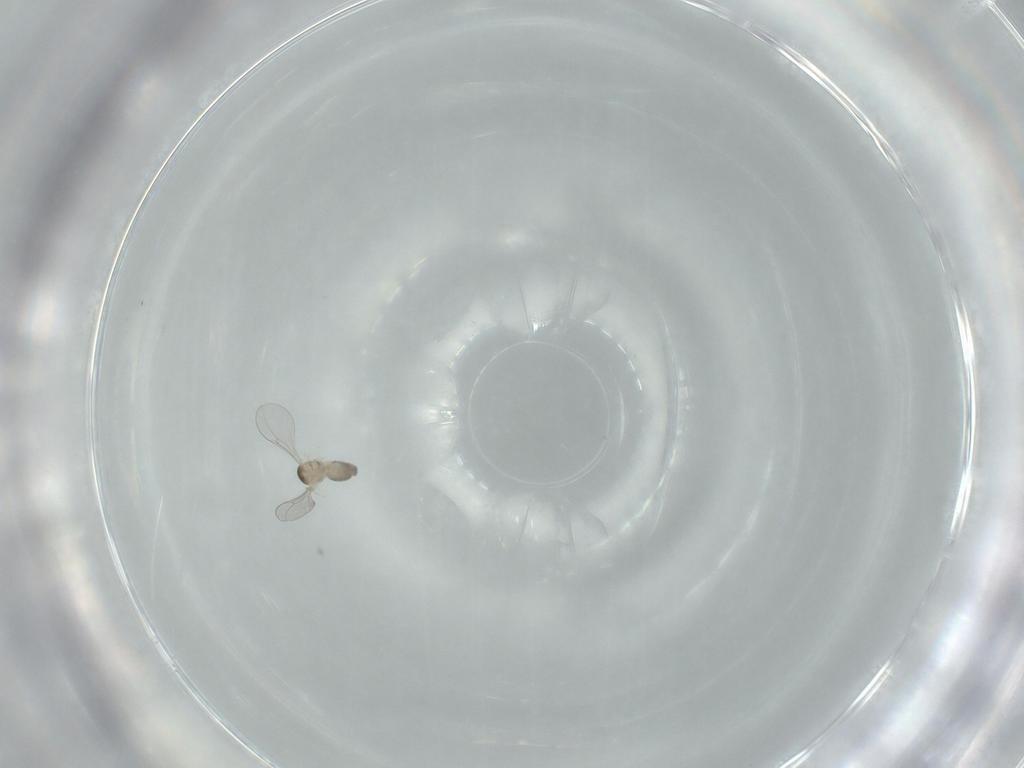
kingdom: Animalia
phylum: Arthropoda
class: Insecta
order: Diptera
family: Lauxaniidae
